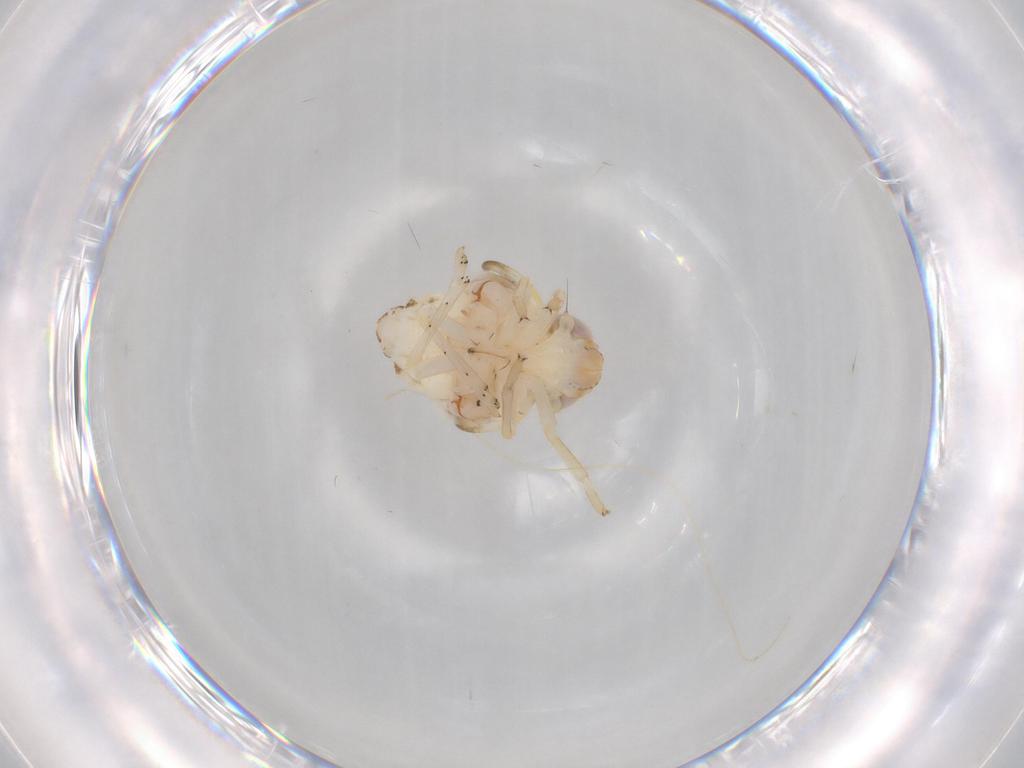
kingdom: Animalia
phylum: Arthropoda
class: Insecta
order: Hemiptera
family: Nogodinidae
